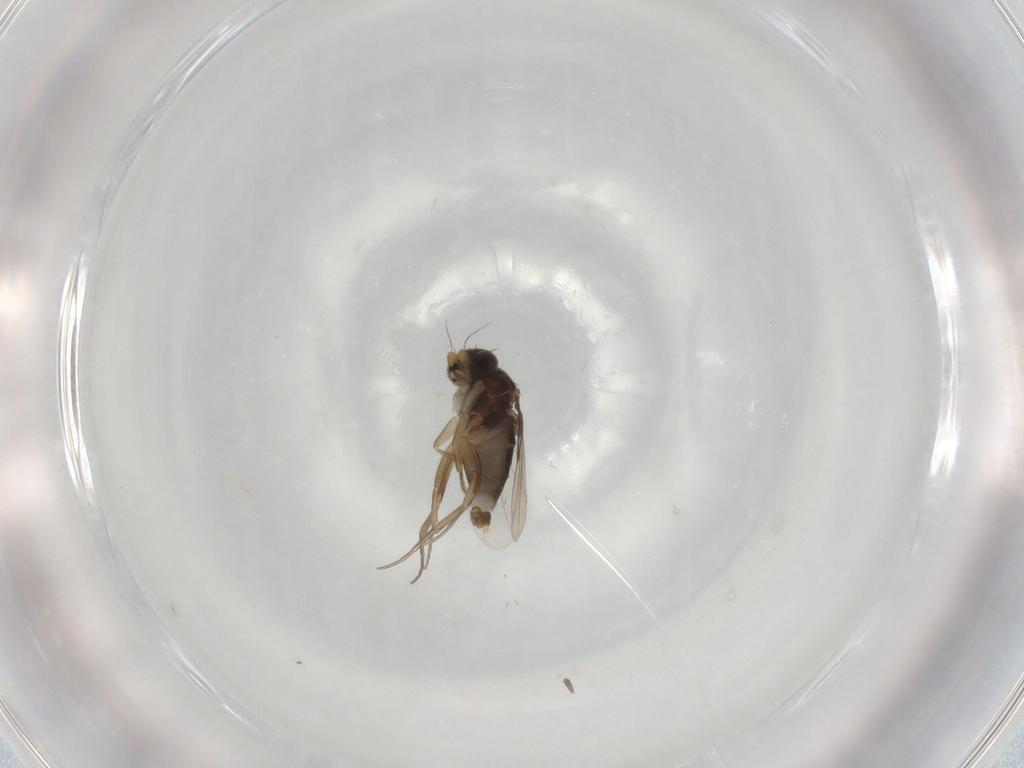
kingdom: Animalia
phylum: Arthropoda
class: Insecta
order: Diptera
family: Phoridae
